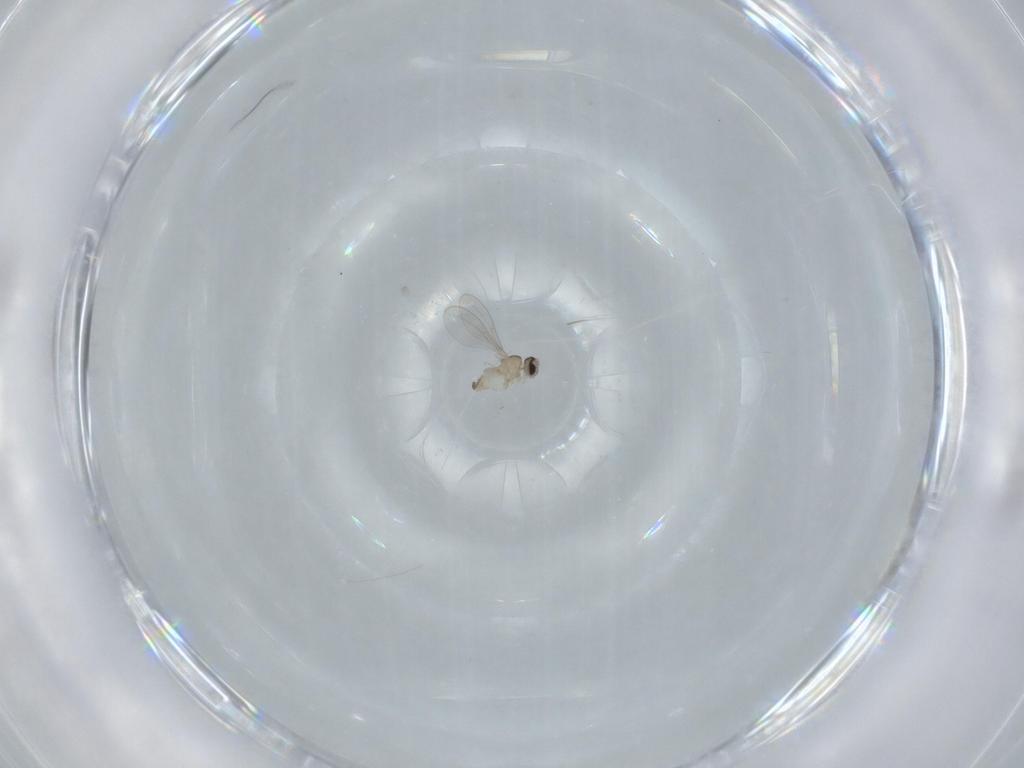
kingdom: Animalia
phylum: Arthropoda
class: Insecta
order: Diptera
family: Cecidomyiidae
